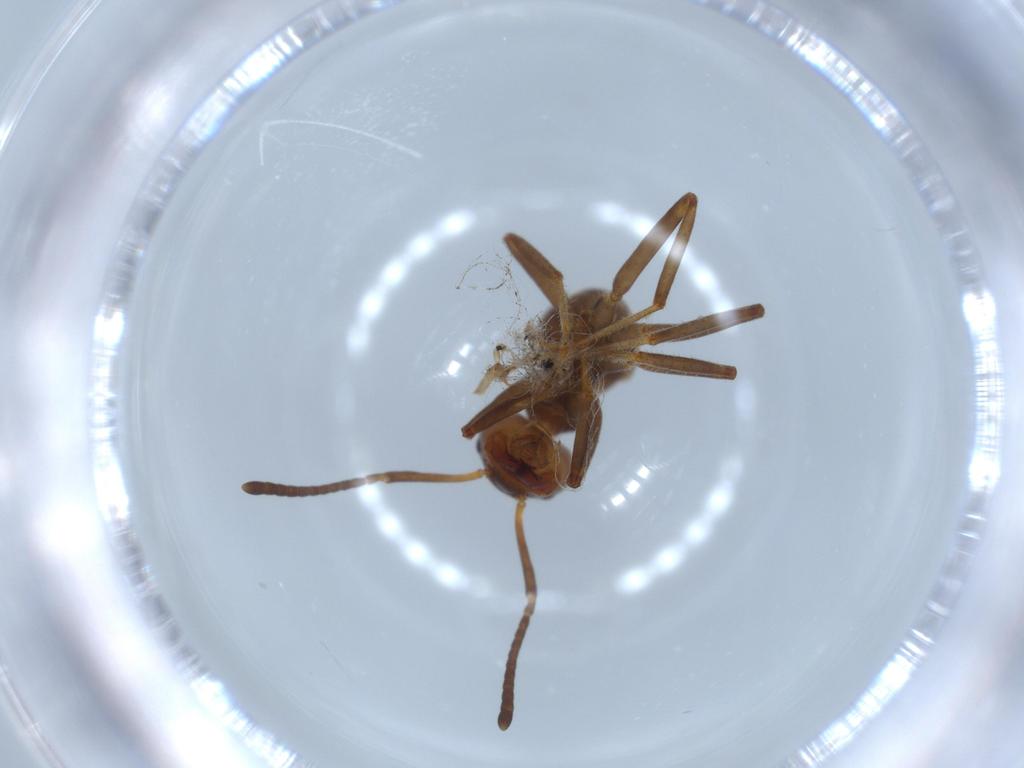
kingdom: Animalia
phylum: Arthropoda
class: Insecta
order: Hymenoptera
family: Formicidae
